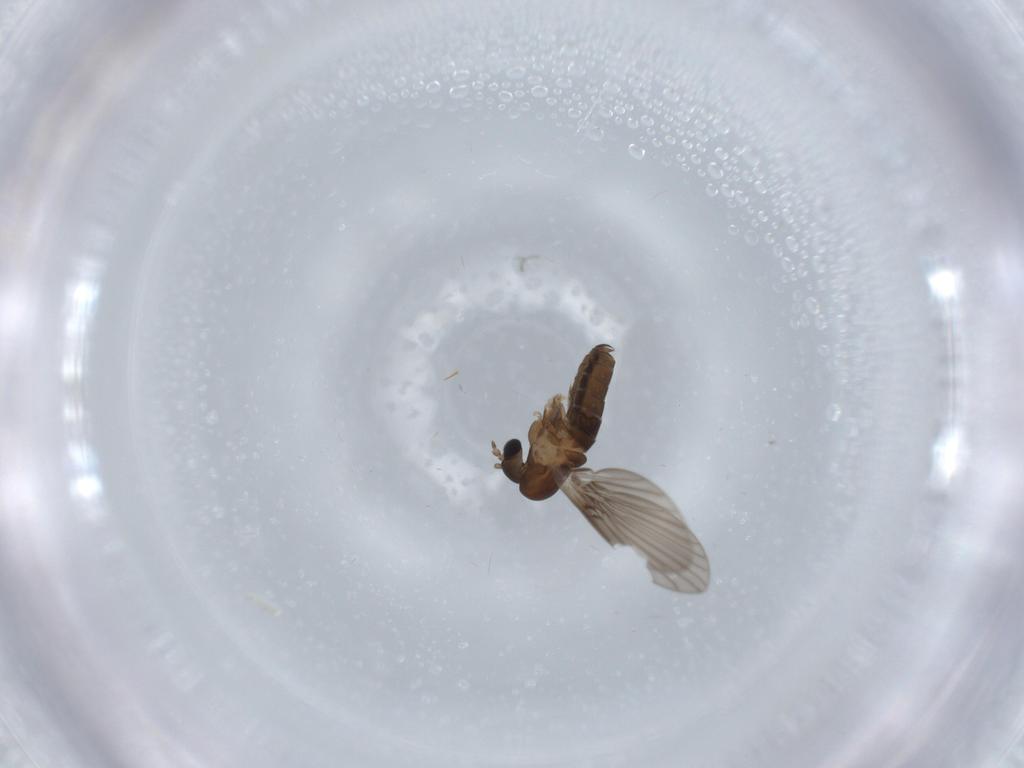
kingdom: Animalia
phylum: Arthropoda
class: Insecta
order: Diptera
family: Psychodidae
